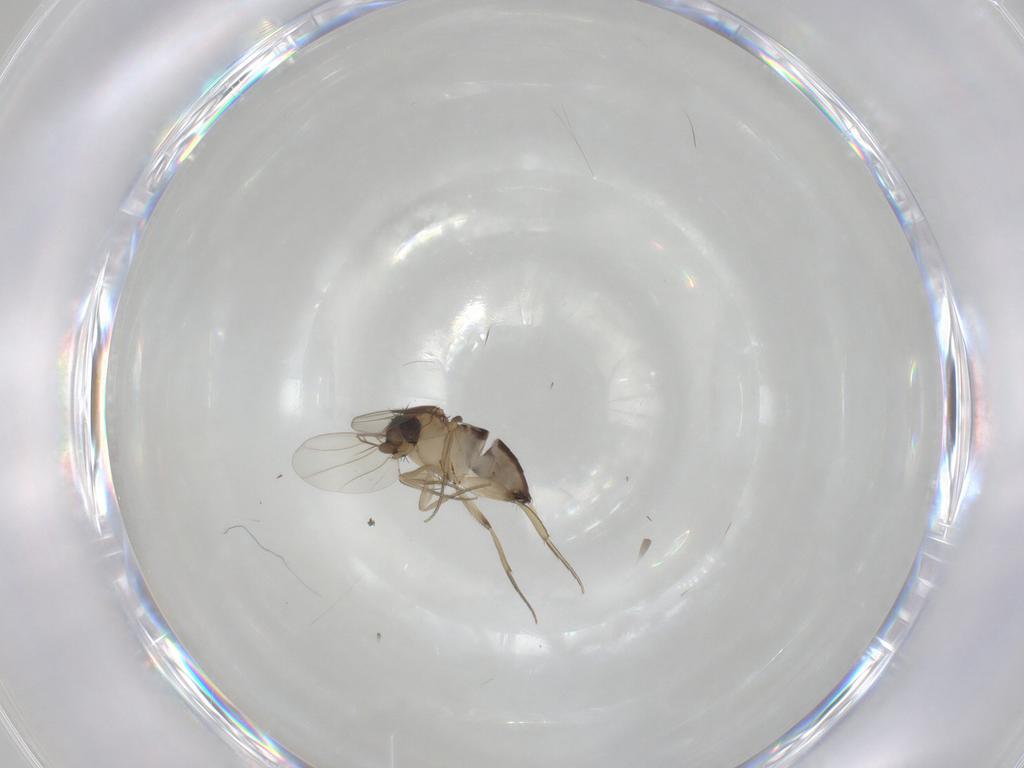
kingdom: Animalia
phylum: Arthropoda
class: Insecta
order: Diptera
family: Phoridae
